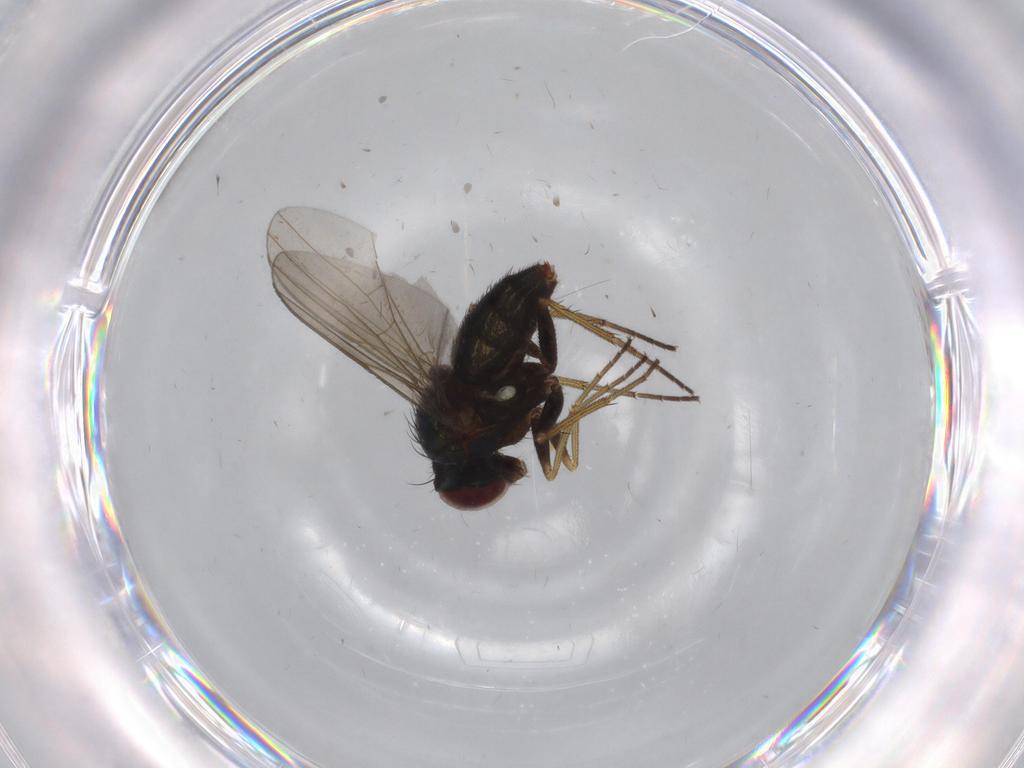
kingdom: Animalia
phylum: Arthropoda
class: Insecta
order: Diptera
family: Dolichopodidae
